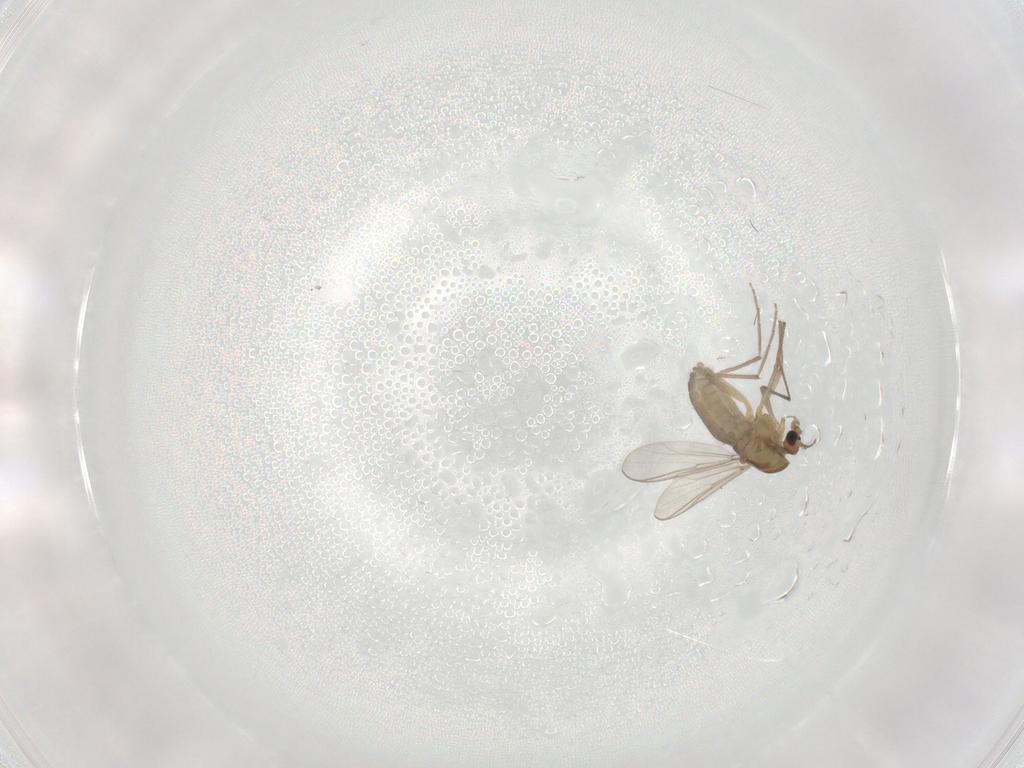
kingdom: Animalia
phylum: Arthropoda
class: Insecta
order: Diptera
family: Chironomidae
